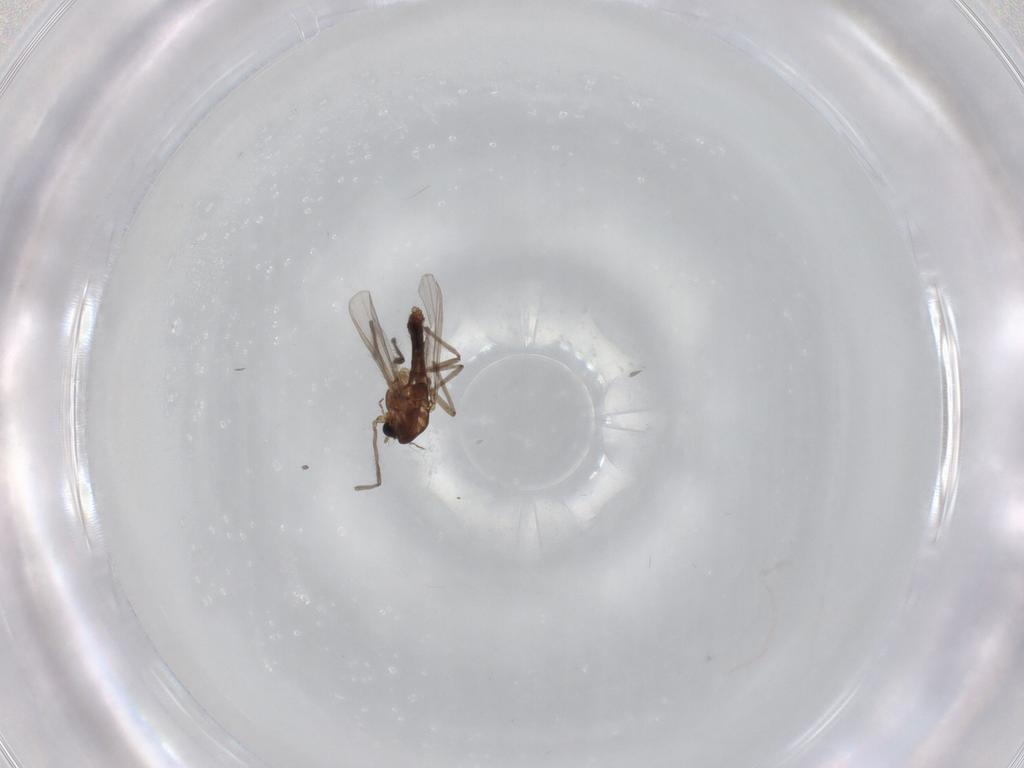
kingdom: Animalia
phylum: Arthropoda
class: Insecta
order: Diptera
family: Chironomidae
